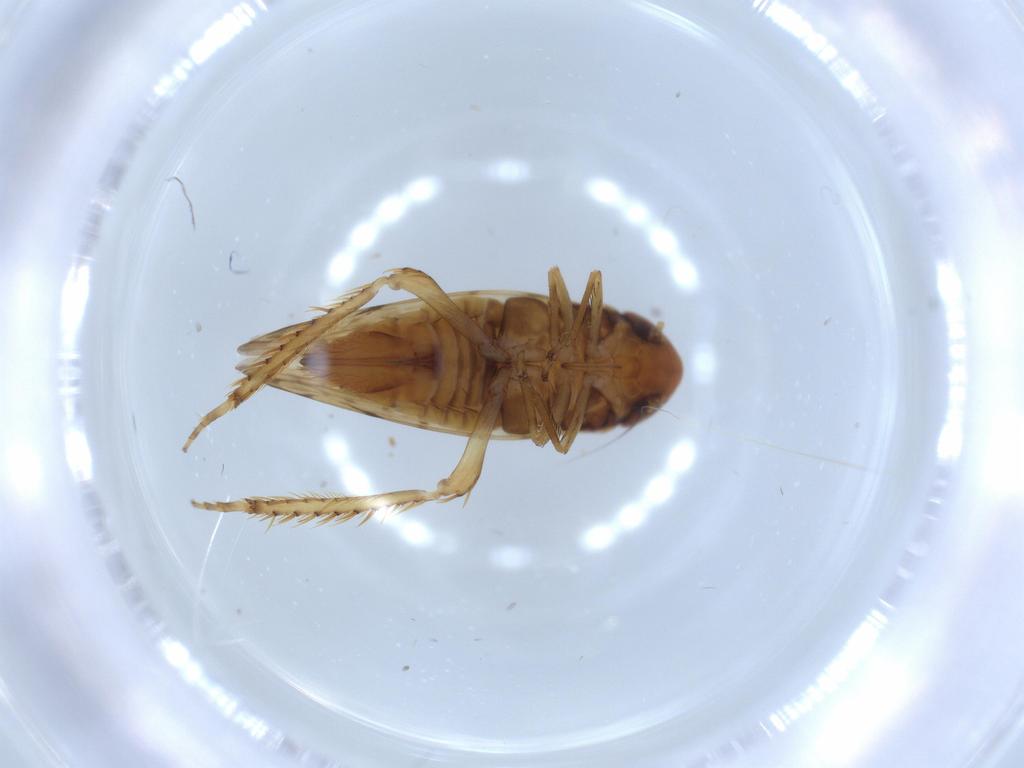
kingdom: Animalia
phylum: Arthropoda
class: Insecta
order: Hemiptera
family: Cicadellidae
